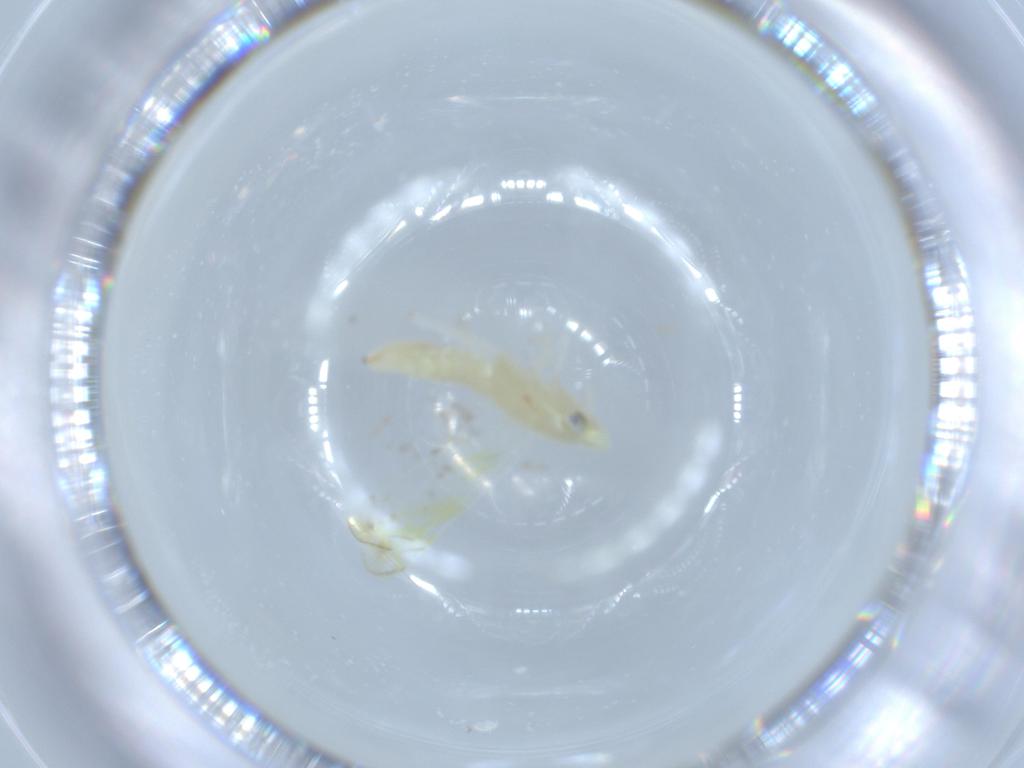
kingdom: Animalia
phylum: Arthropoda
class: Insecta
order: Hemiptera
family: Cicadellidae
